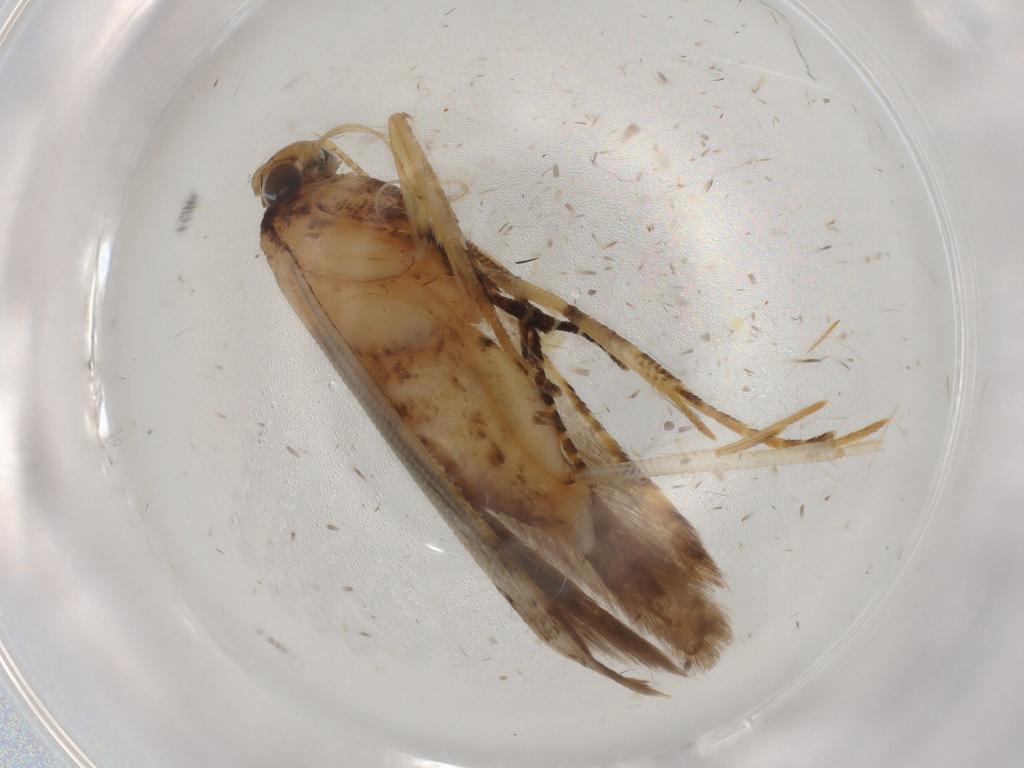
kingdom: Animalia
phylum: Arthropoda
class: Insecta
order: Lepidoptera
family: Gelechiidae
